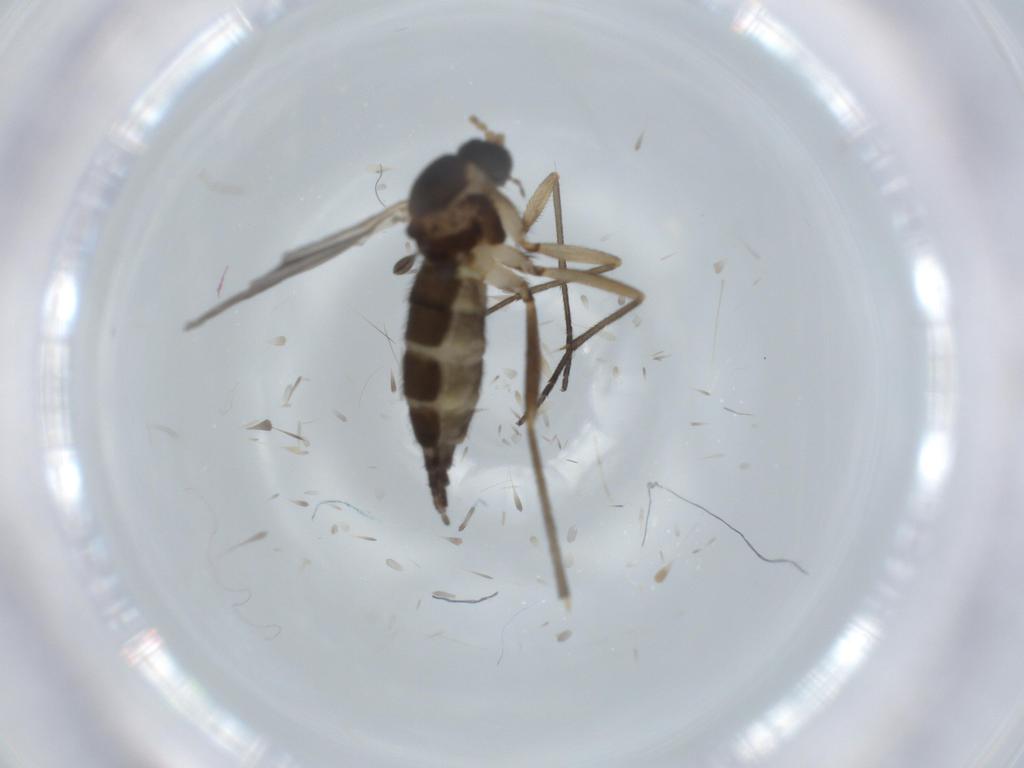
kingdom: Animalia
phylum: Arthropoda
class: Insecta
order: Diptera
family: Sciaridae
